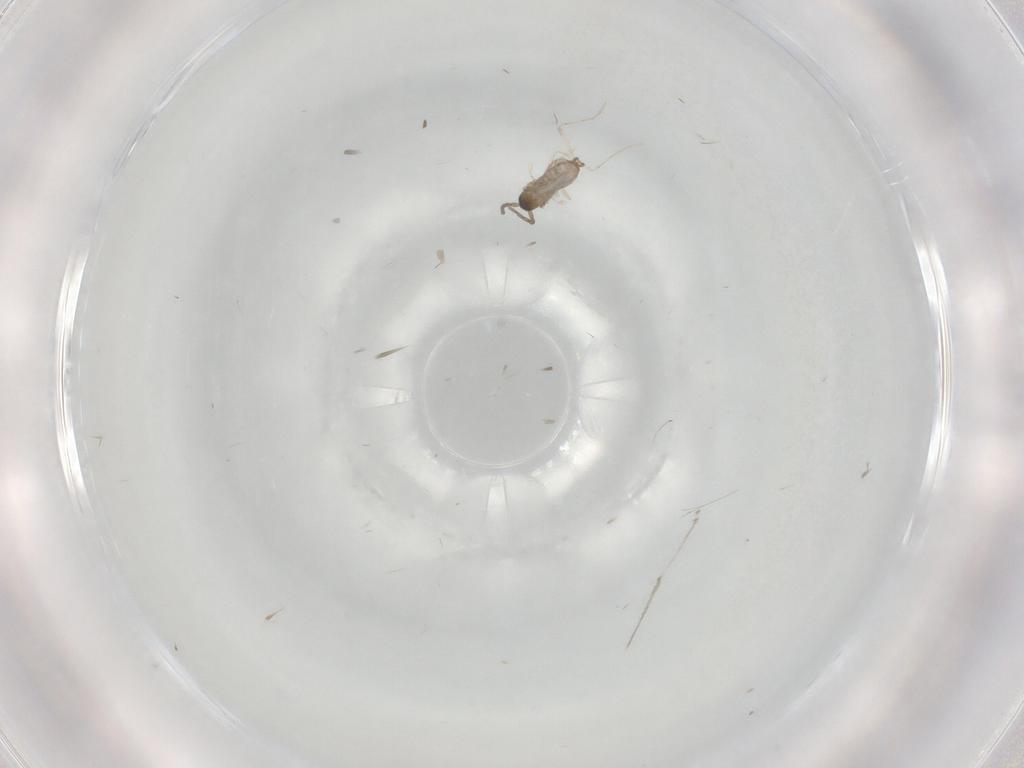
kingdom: Animalia
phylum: Arthropoda
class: Insecta
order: Diptera
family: Cecidomyiidae
